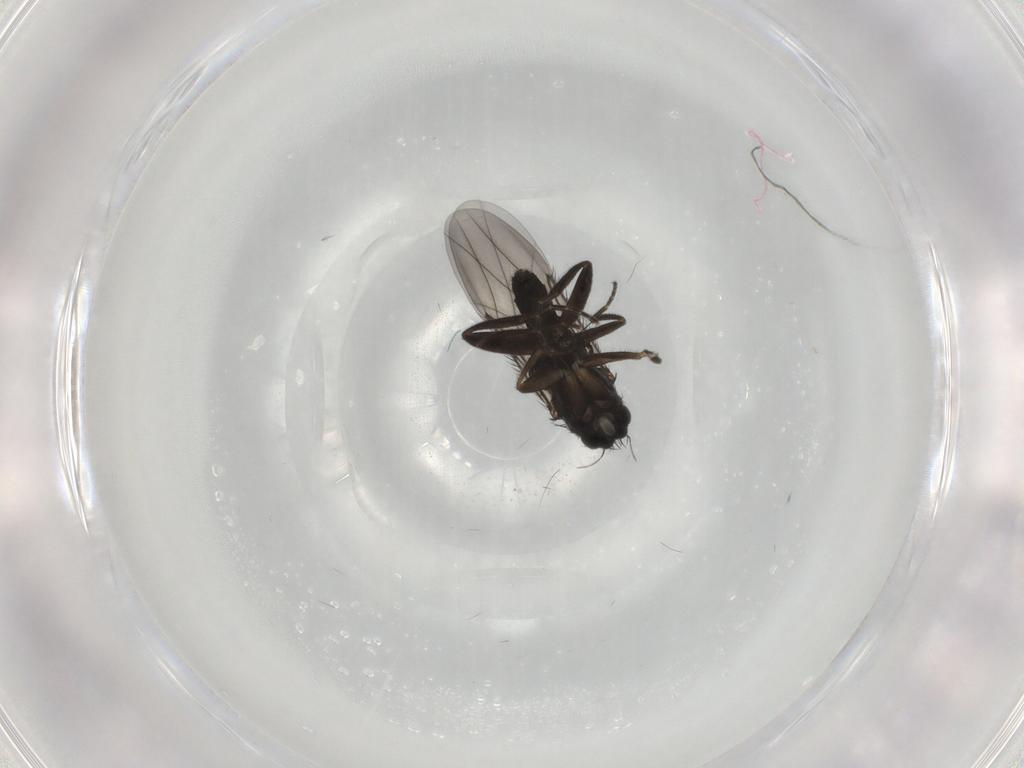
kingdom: Animalia
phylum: Arthropoda
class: Insecta
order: Diptera
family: Phoridae
